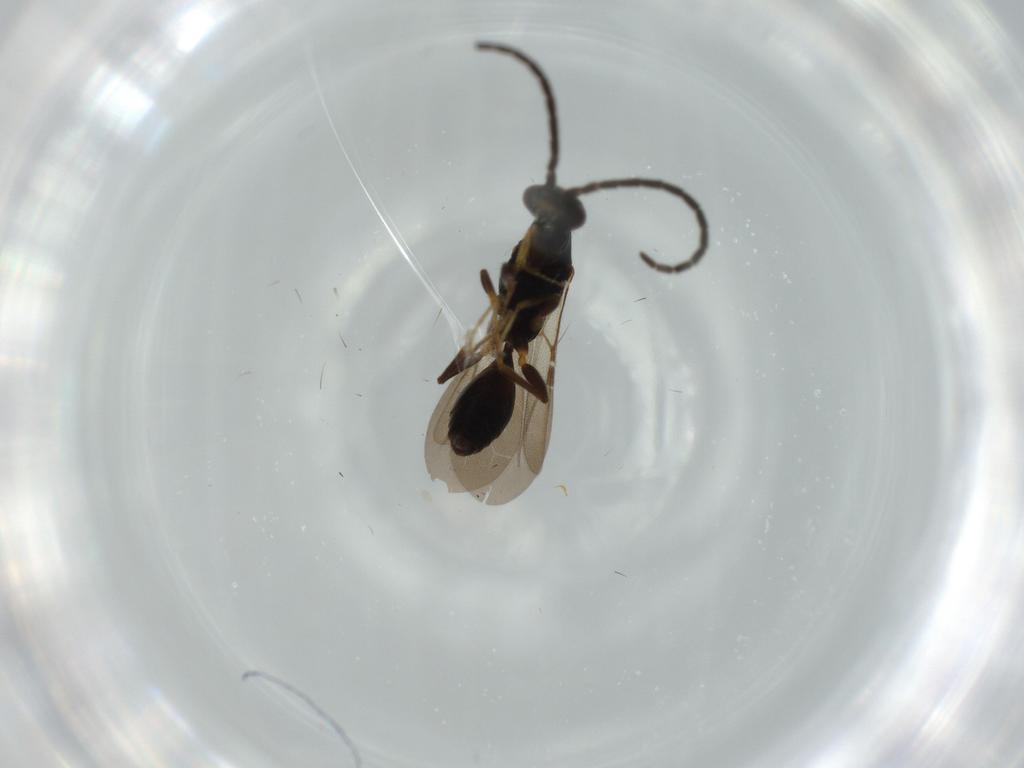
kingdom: Animalia
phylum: Arthropoda
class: Insecta
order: Hymenoptera
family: Bethylidae
